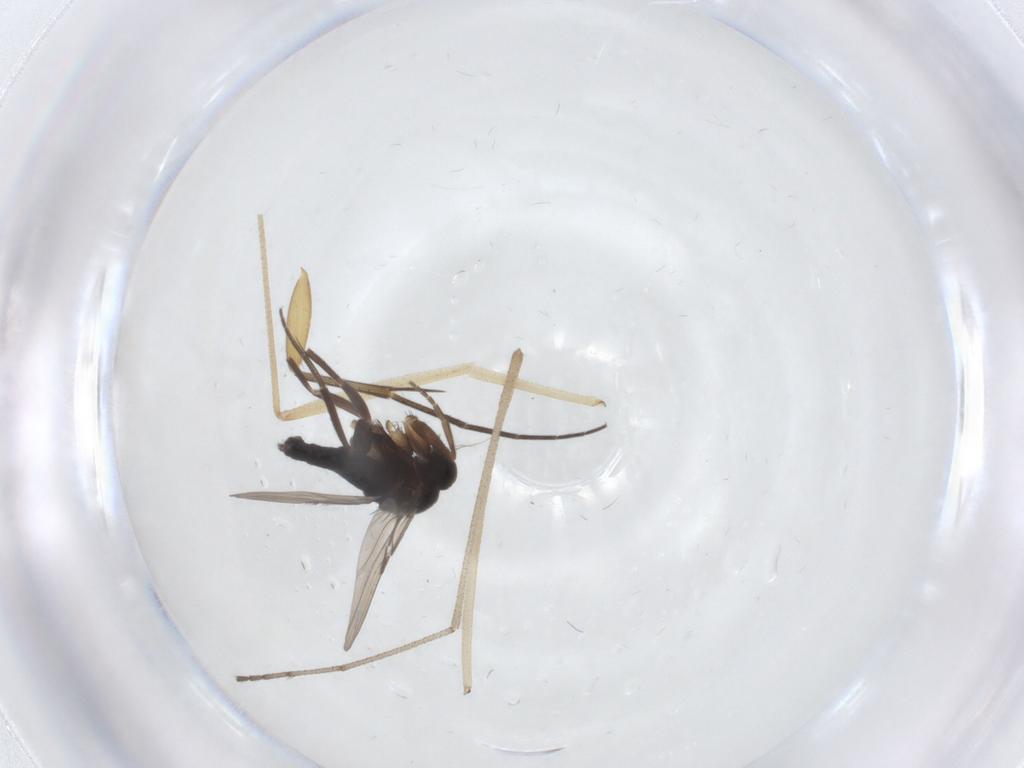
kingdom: Animalia
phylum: Arthropoda
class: Insecta
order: Diptera
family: Phoridae
